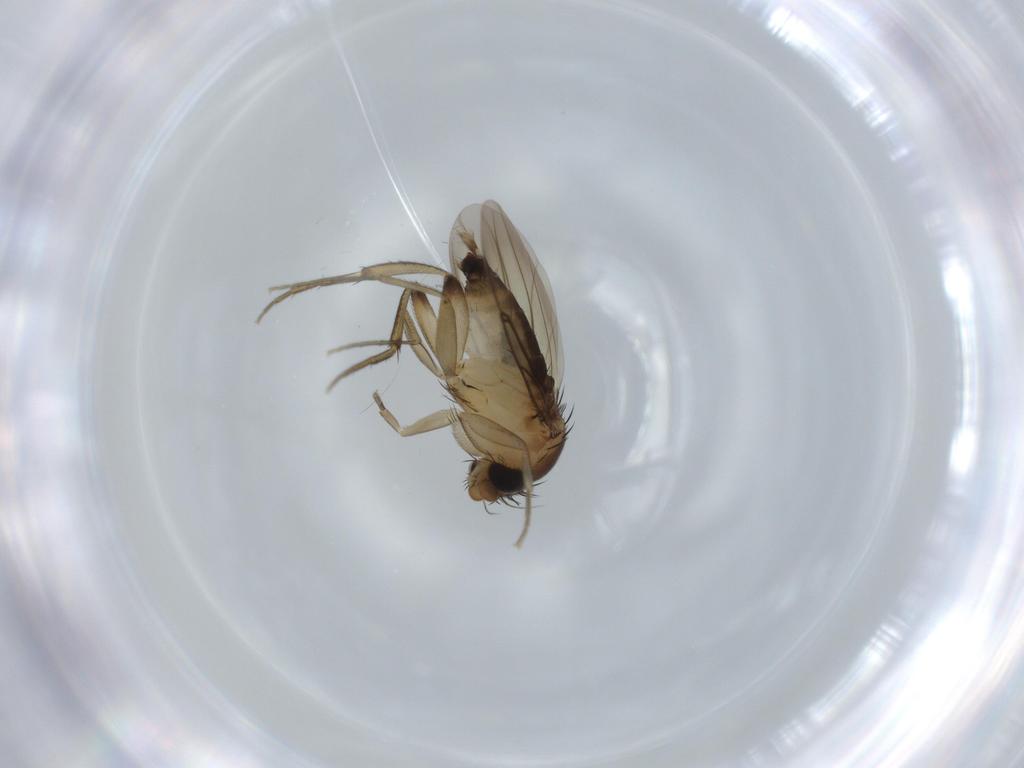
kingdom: Animalia
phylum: Arthropoda
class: Insecta
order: Diptera
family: Phoridae
